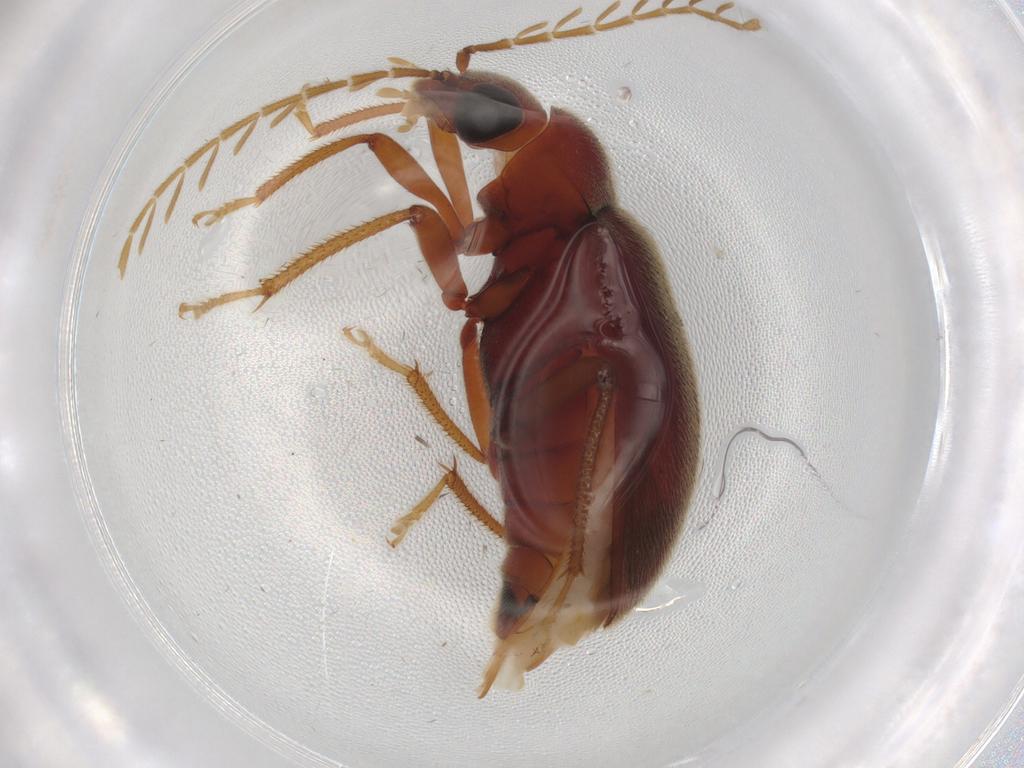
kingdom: Animalia
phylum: Arthropoda
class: Insecta
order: Coleoptera
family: Ptilodactylidae
